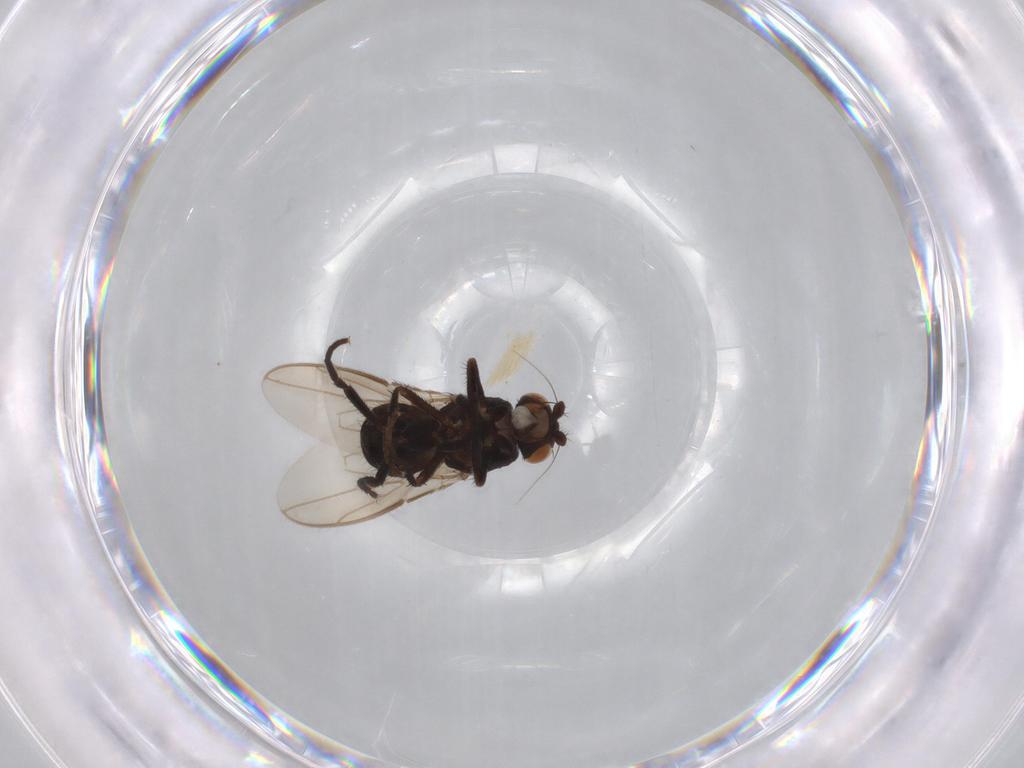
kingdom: Animalia
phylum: Arthropoda
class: Insecta
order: Diptera
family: Sphaeroceridae
